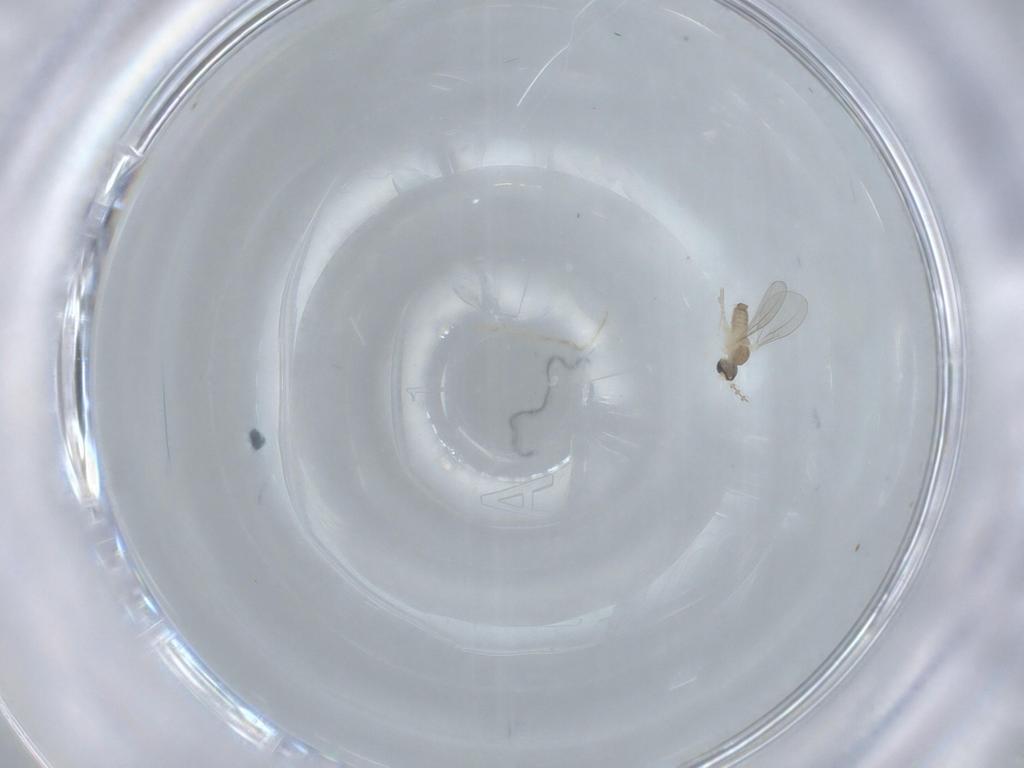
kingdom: Animalia
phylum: Arthropoda
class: Insecta
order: Diptera
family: Cecidomyiidae
